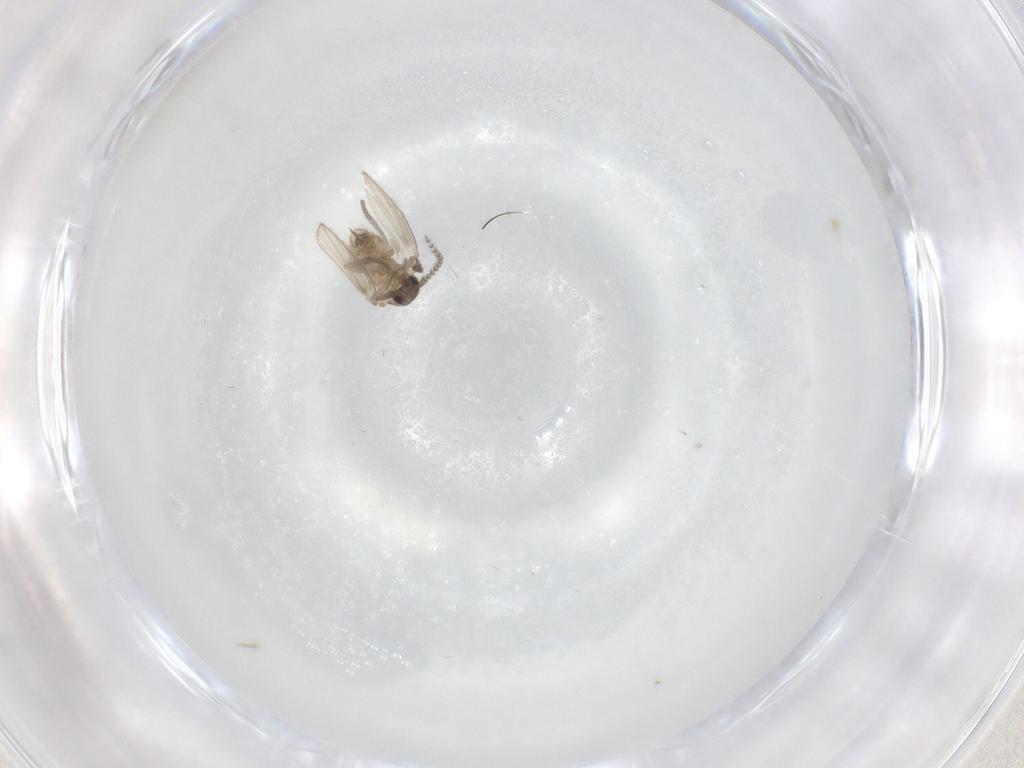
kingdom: Animalia
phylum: Arthropoda
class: Insecta
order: Diptera
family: Psychodidae
